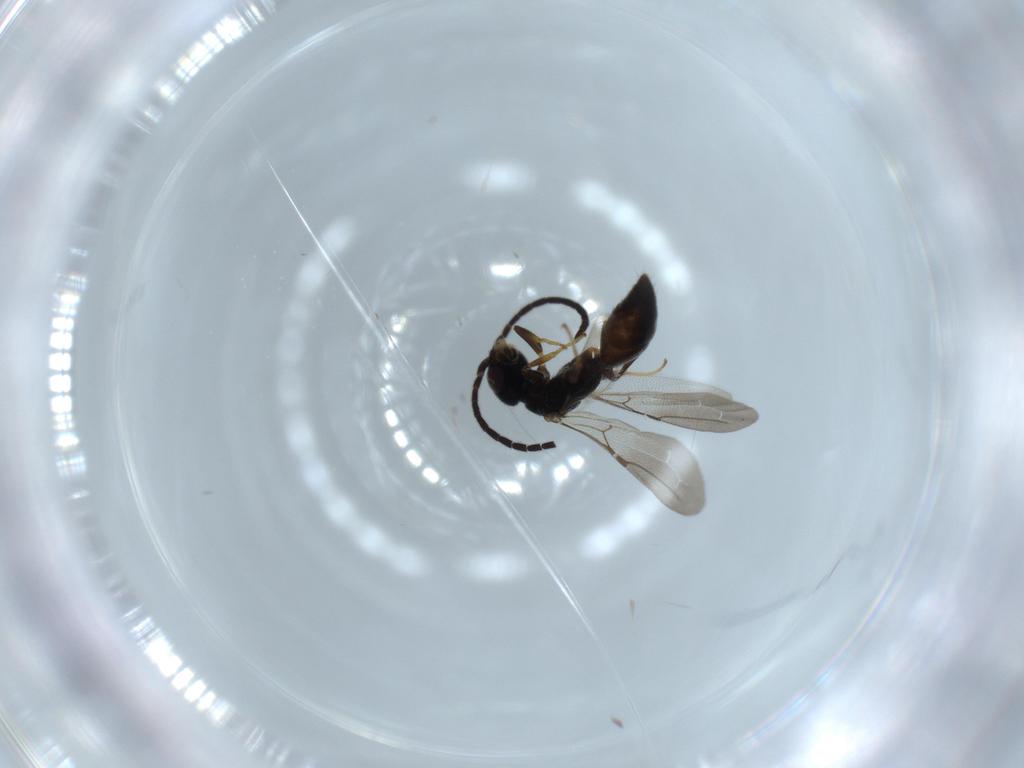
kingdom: Animalia
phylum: Arthropoda
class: Insecta
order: Hymenoptera
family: Bethylidae
